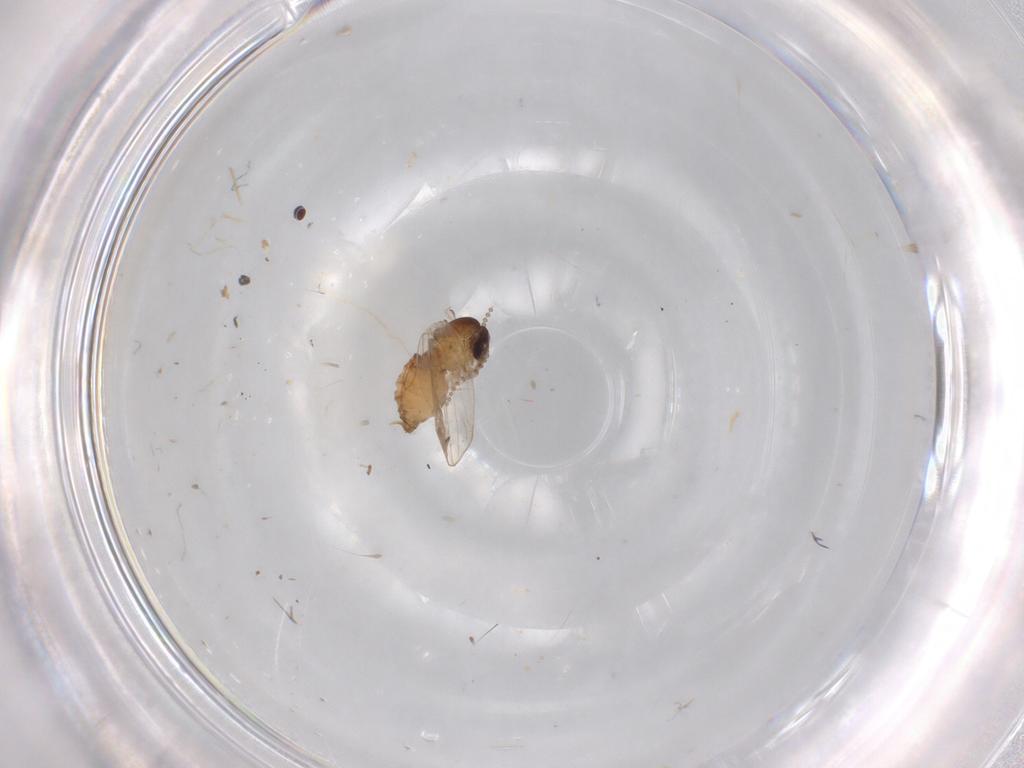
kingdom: Animalia
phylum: Arthropoda
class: Insecta
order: Diptera
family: Psychodidae
